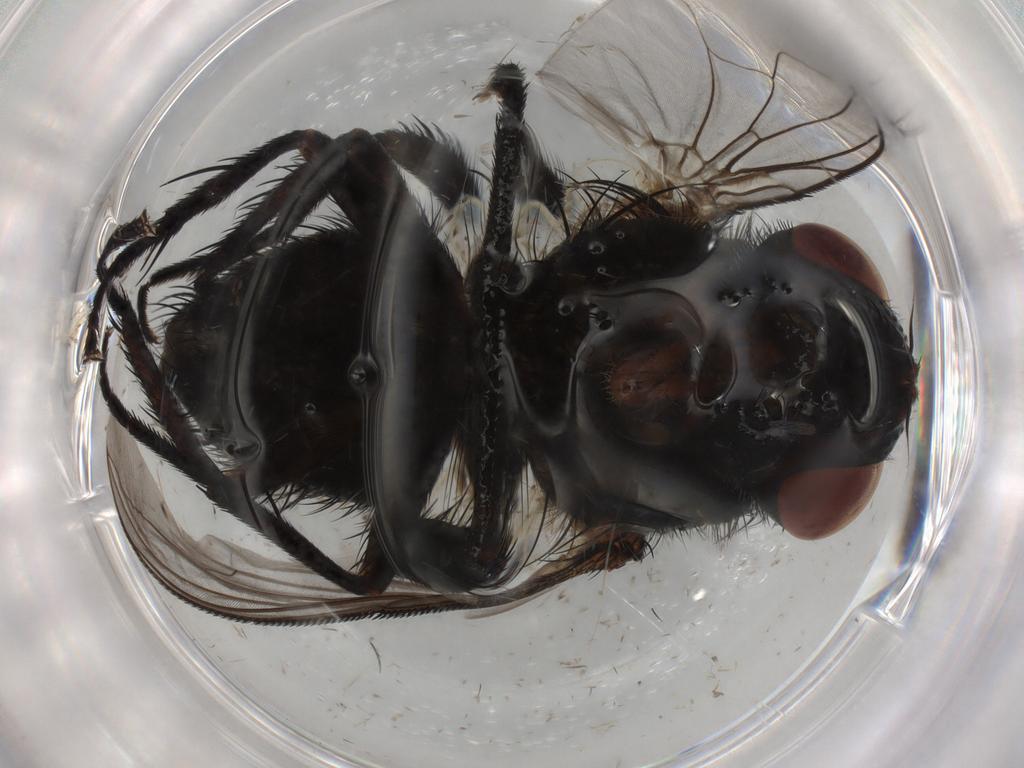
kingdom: Animalia
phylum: Arthropoda
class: Insecta
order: Diptera
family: Tachinidae
